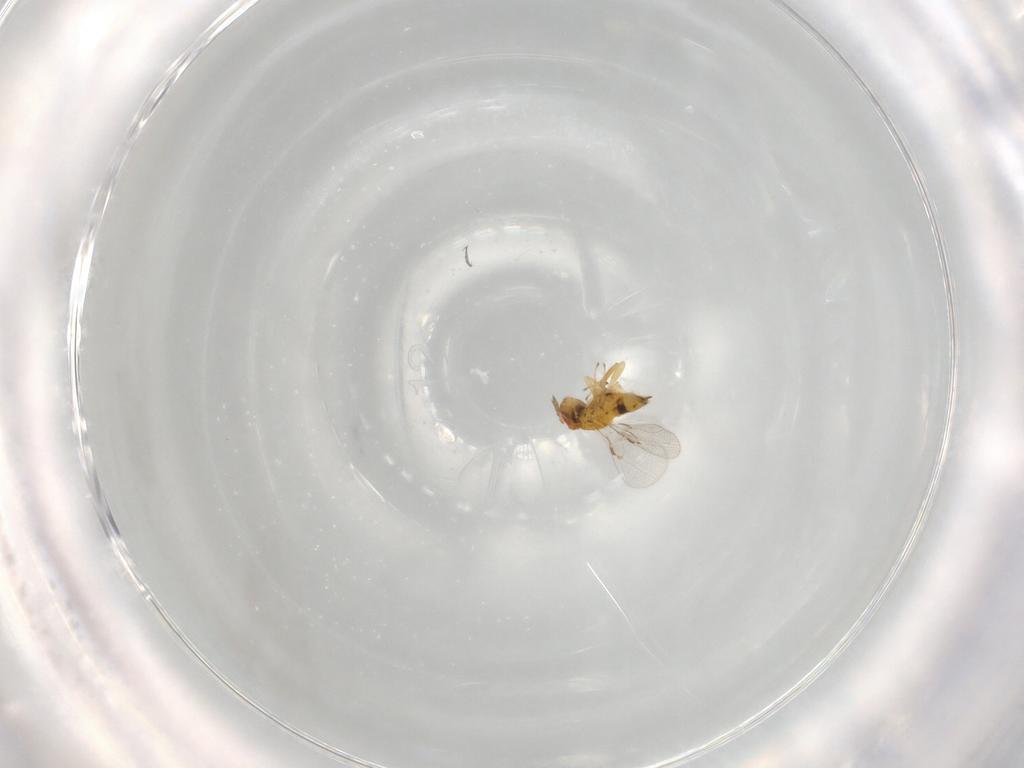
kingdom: Animalia
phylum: Arthropoda
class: Insecta
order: Hymenoptera
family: Trichogrammatidae
